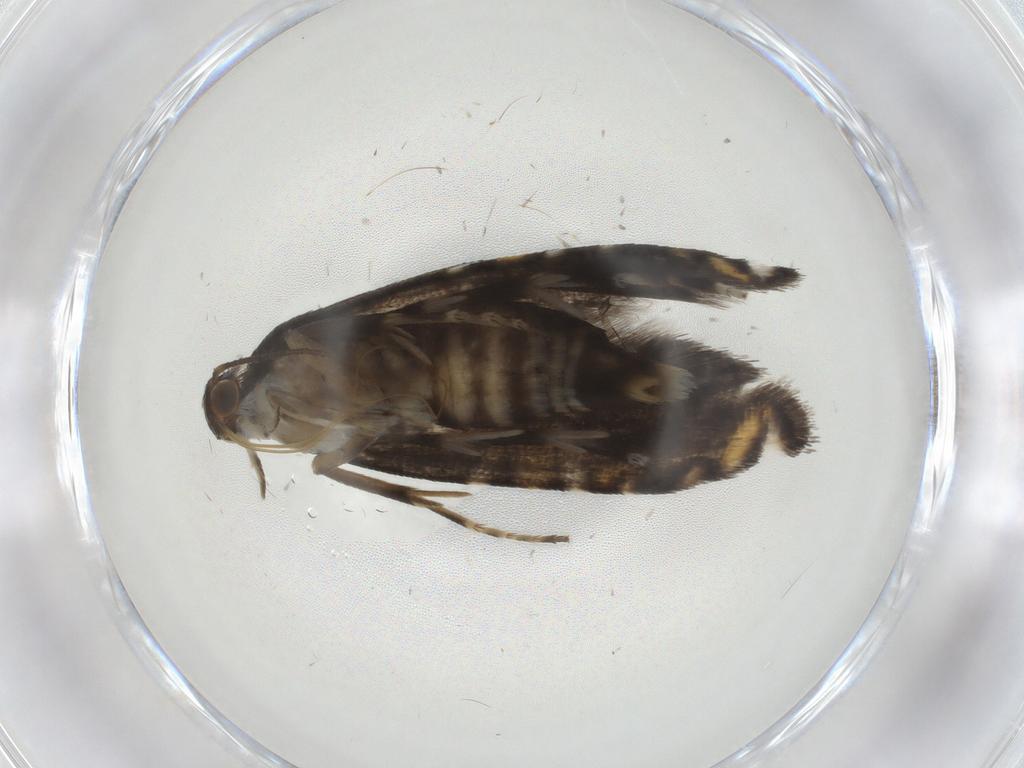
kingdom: Animalia
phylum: Arthropoda
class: Insecta
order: Lepidoptera
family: Glyphipterigidae
